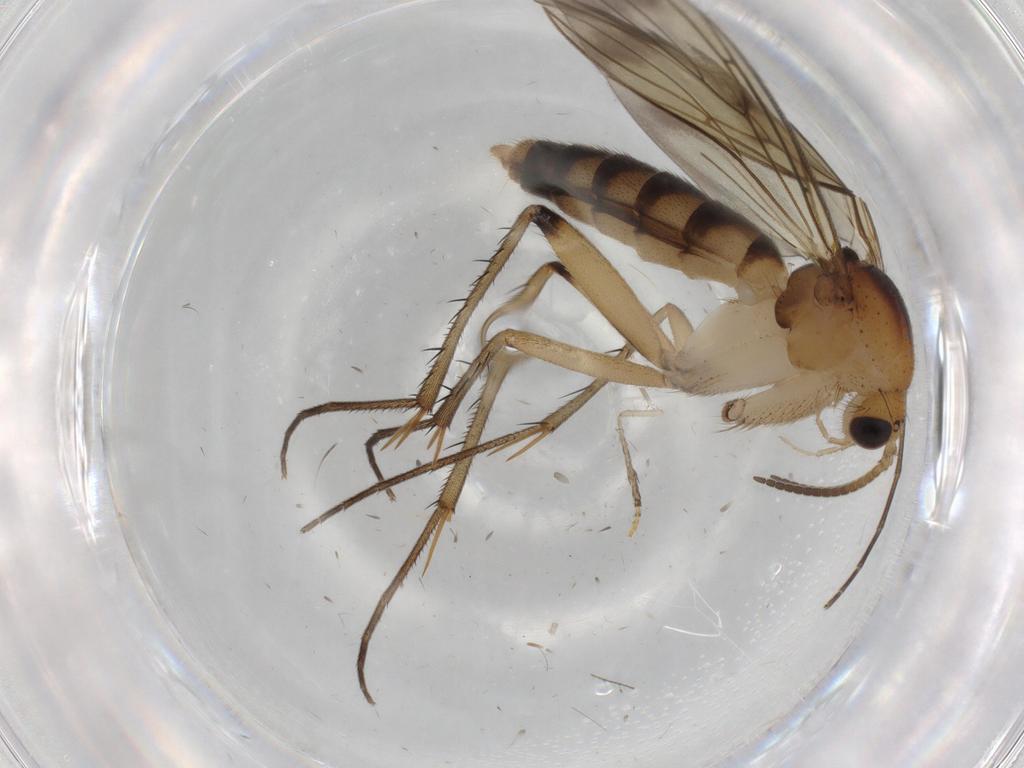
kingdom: Animalia
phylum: Arthropoda
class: Insecta
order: Diptera
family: Mycetophilidae
